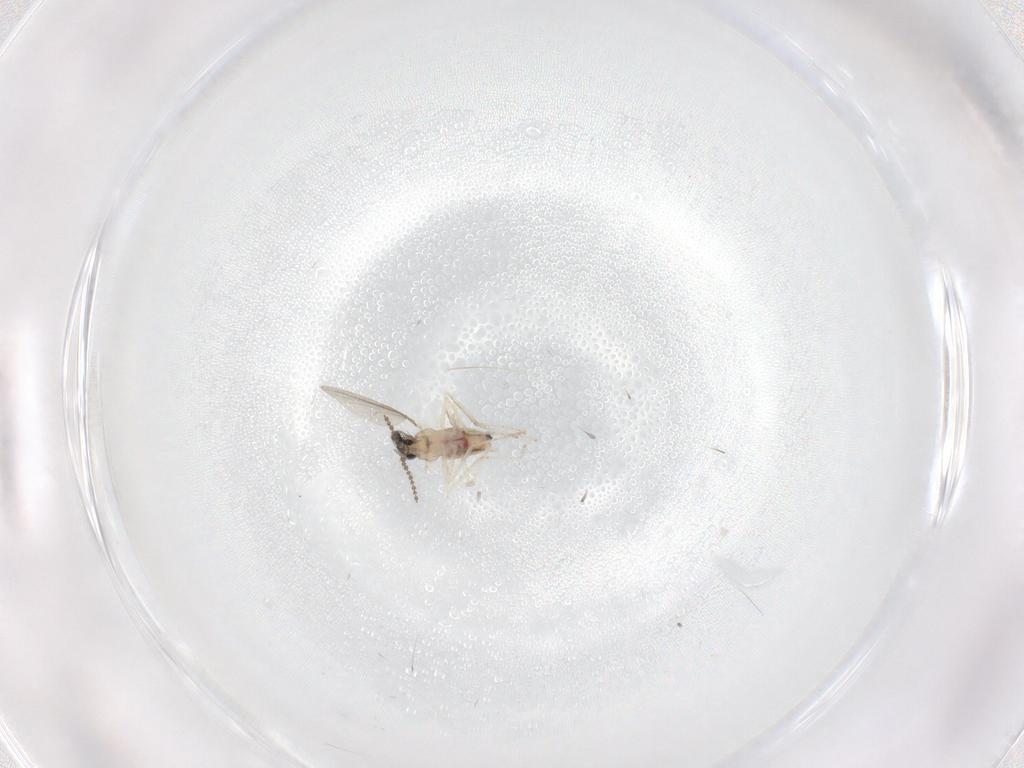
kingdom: Animalia
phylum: Arthropoda
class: Insecta
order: Diptera
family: Cecidomyiidae
